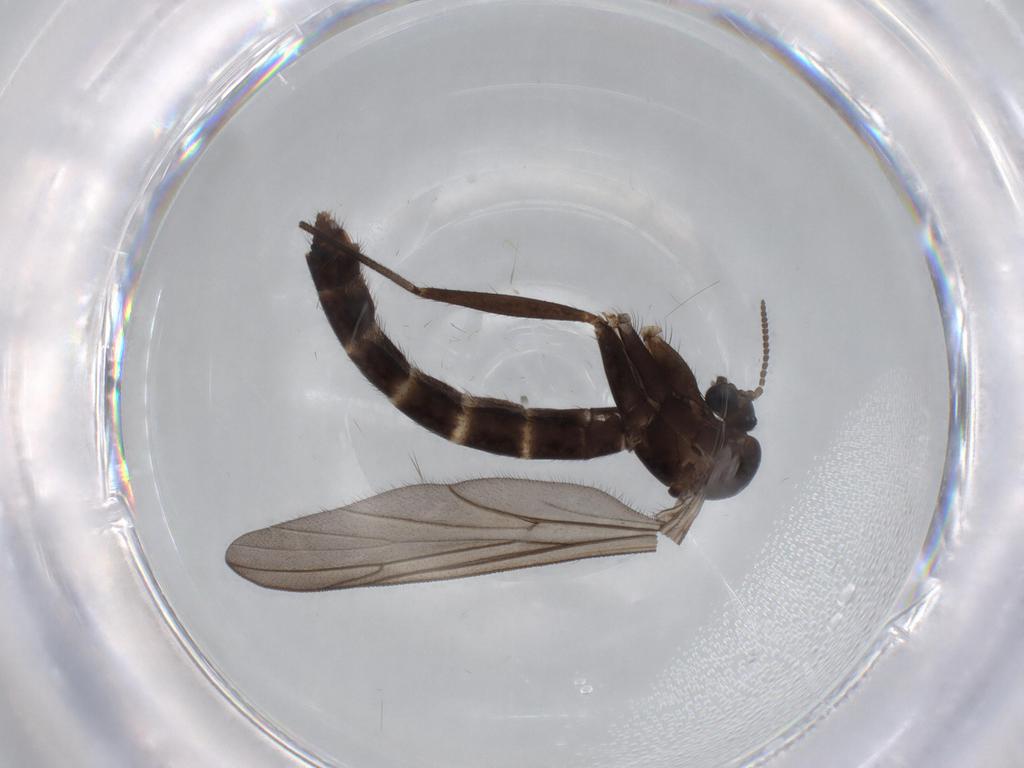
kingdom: Animalia
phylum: Arthropoda
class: Insecta
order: Diptera
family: Ditomyiidae
